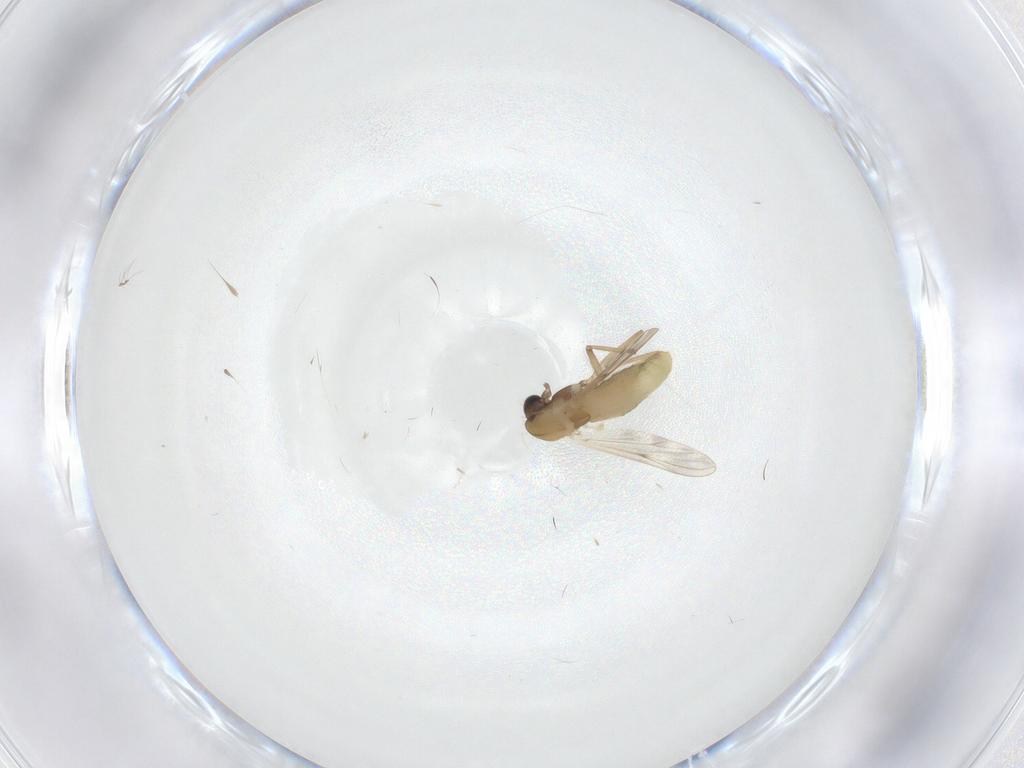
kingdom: Animalia
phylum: Arthropoda
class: Insecta
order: Diptera
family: Chironomidae
